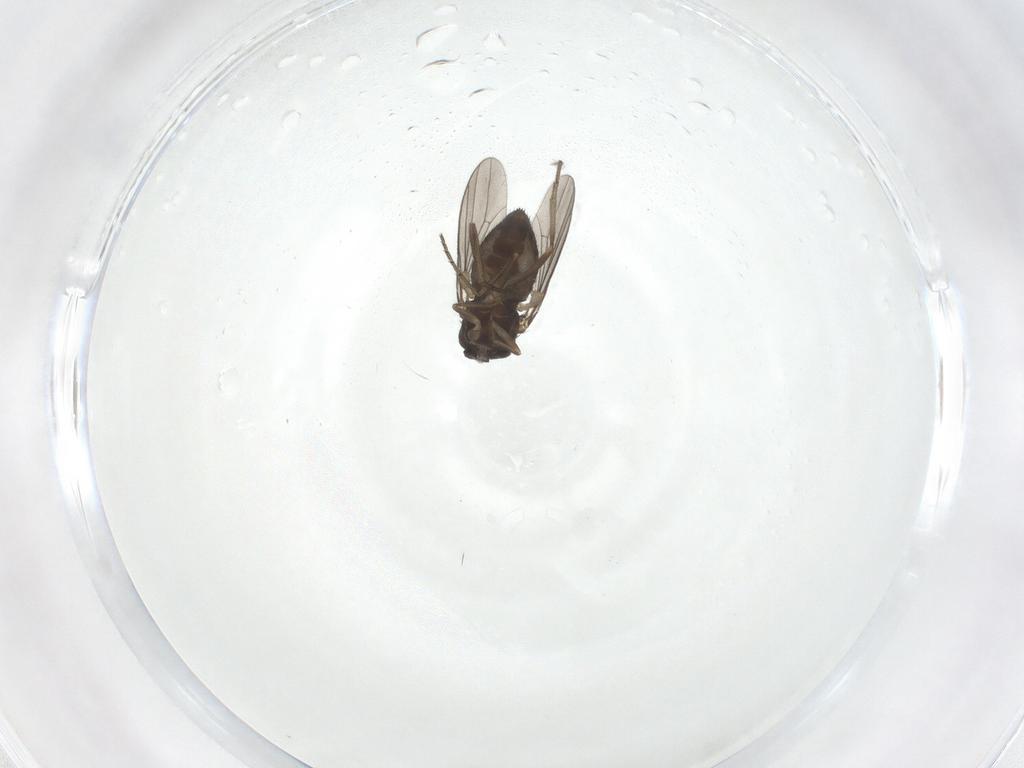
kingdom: Animalia
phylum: Arthropoda
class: Insecta
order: Diptera
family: Dolichopodidae
